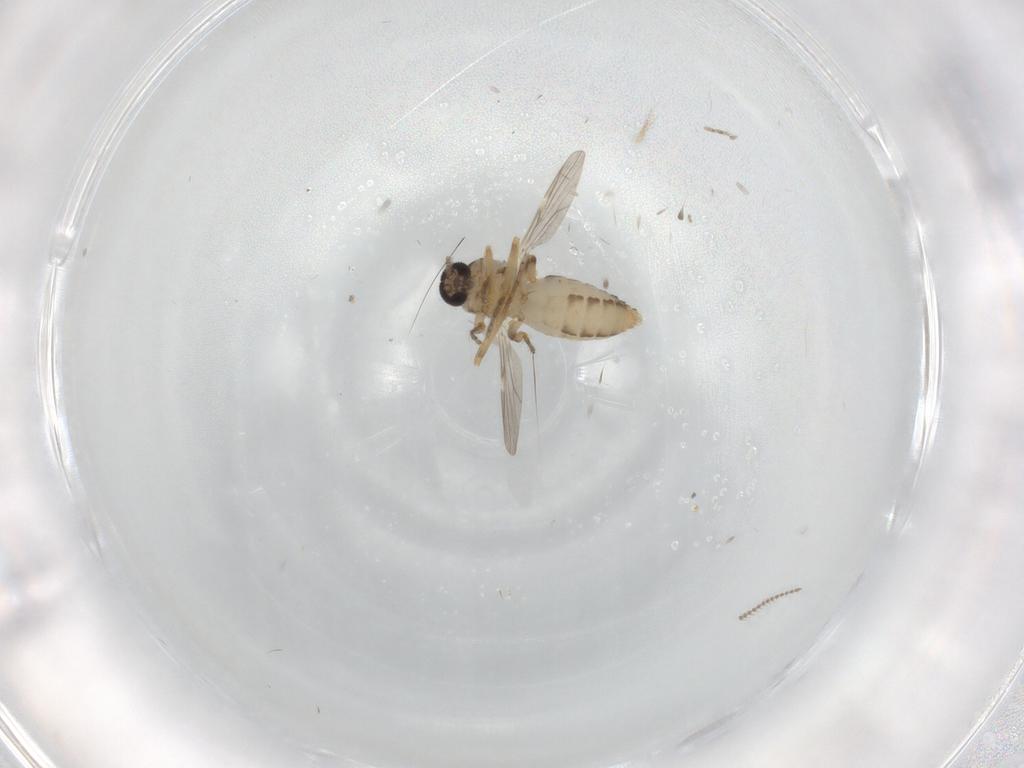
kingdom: Animalia
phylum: Arthropoda
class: Insecta
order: Diptera
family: Ceratopogonidae
